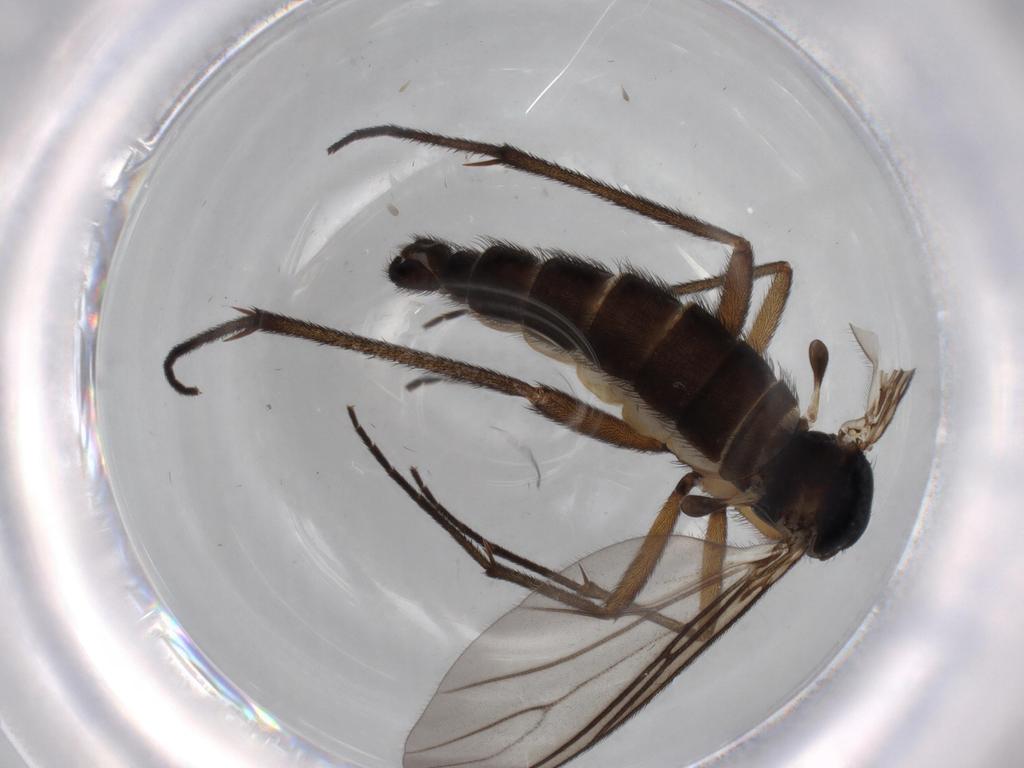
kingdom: Animalia
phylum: Arthropoda
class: Insecta
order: Diptera
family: Sciaridae
